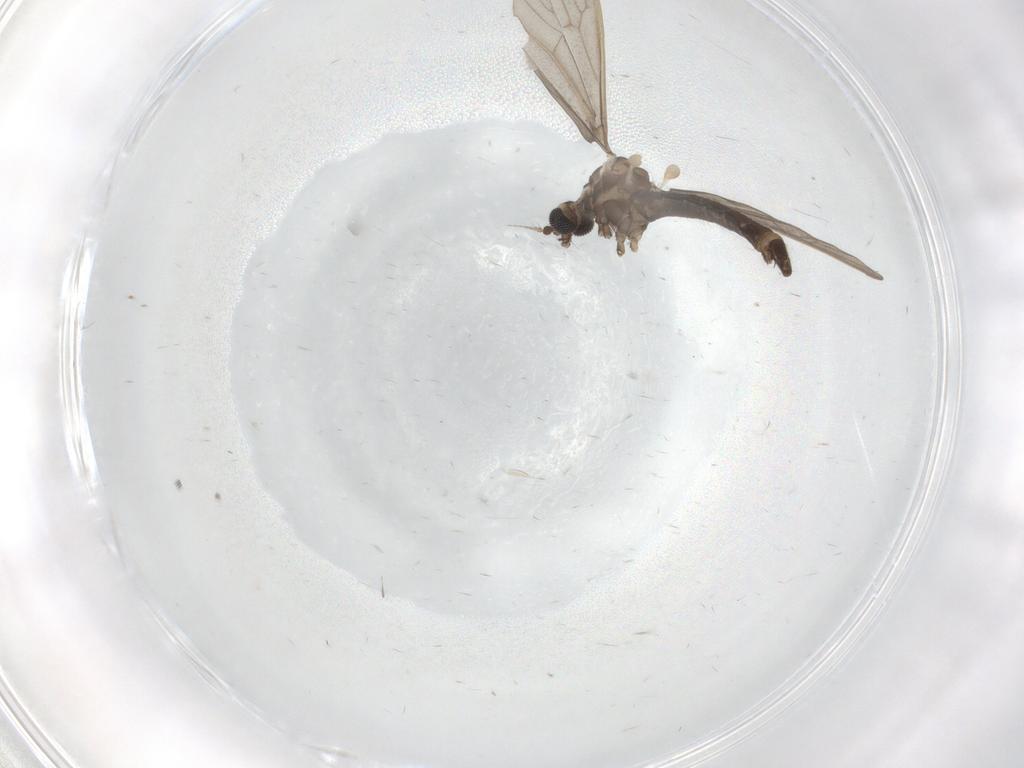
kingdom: Animalia
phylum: Arthropoda
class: Insecta
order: Diptera
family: Limoniidae
